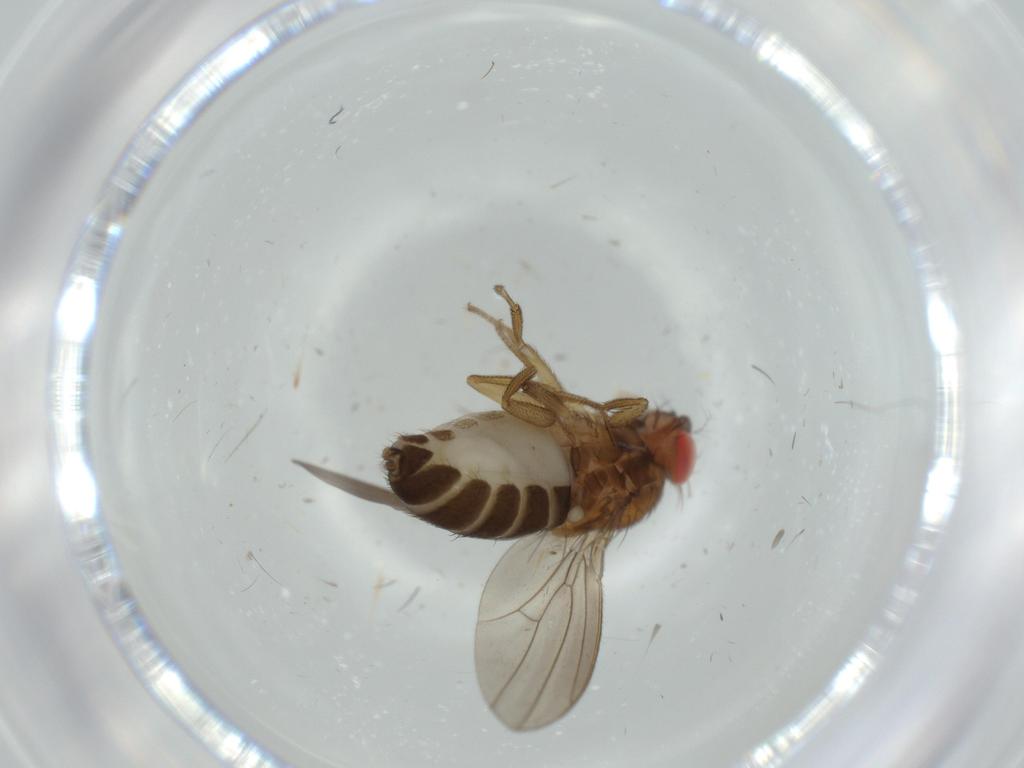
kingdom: Animalia
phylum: Arthropoda
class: Insecta
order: Diptera
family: Drosophilidae
